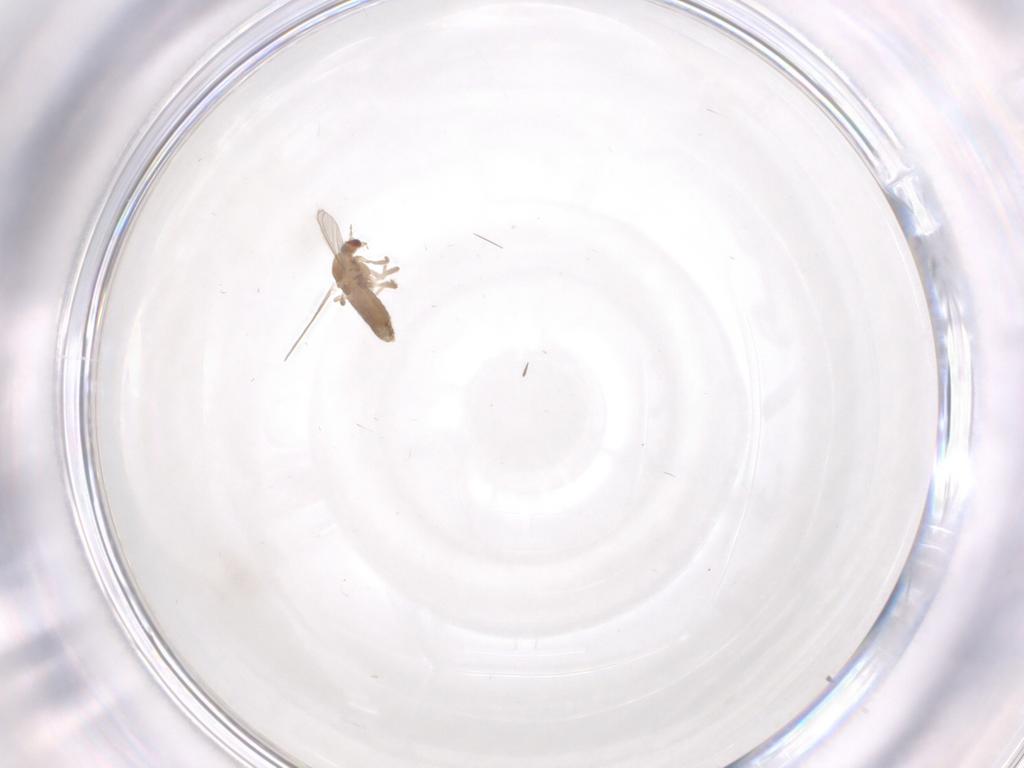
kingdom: Animalia
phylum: Arthropoda
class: Insecta
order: Diptera
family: Chironomidae
